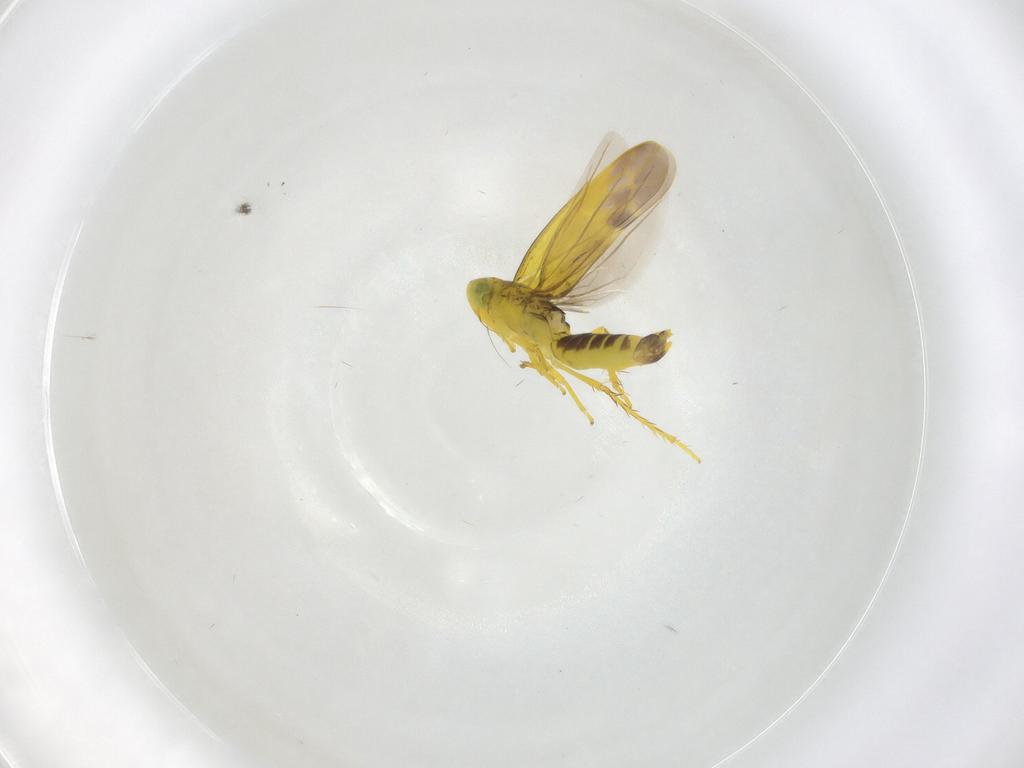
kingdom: Animalia
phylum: Arthropoda
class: Insecta
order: Hemiptera
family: Cicadellidae
